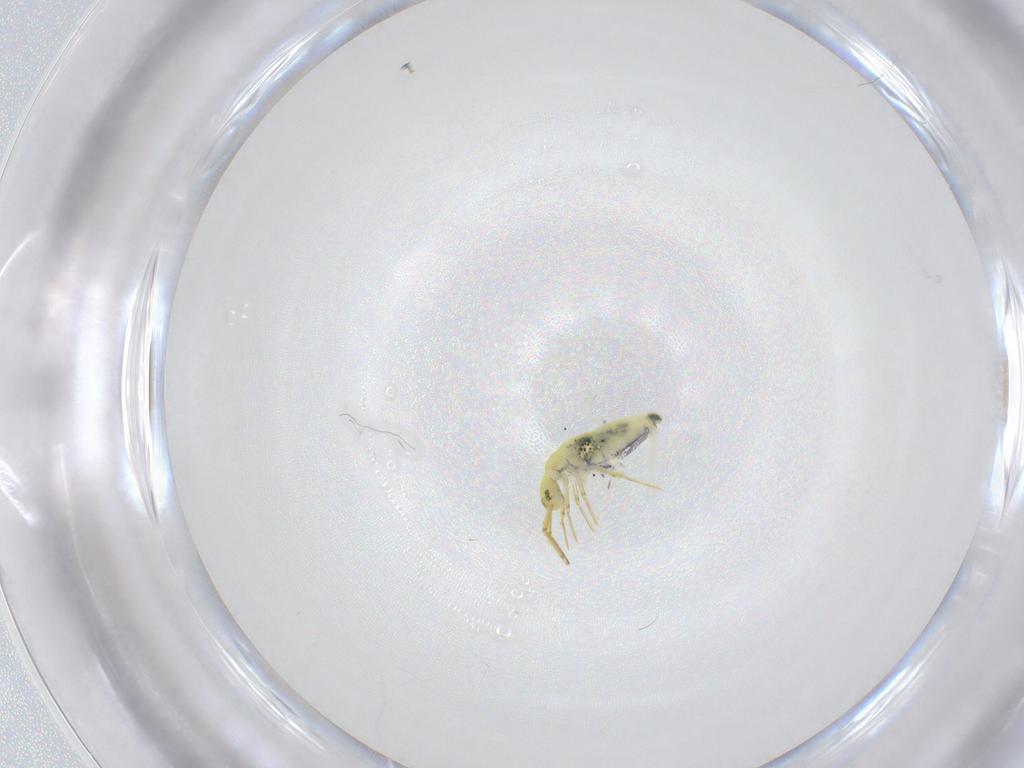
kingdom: Animalia
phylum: Arthropoda
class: Collembola
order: Entomobryomorpha
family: Entomobryidae
